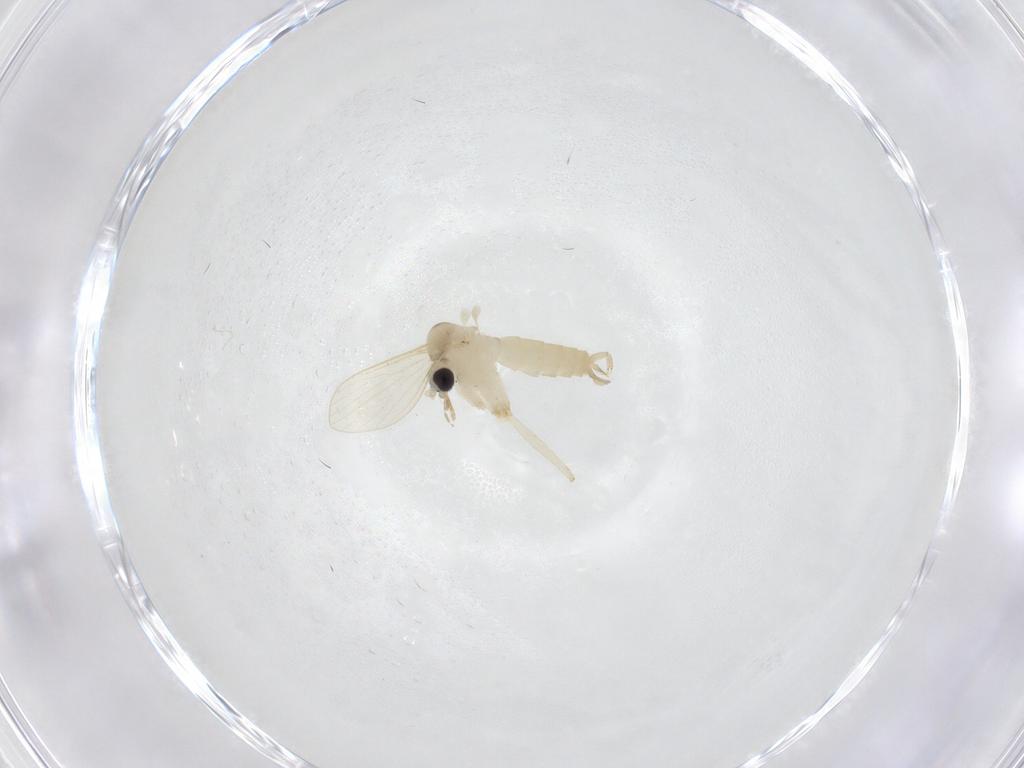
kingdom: Animalia
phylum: Arthropoda
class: Insecta
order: Diptera
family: Psychodidae
